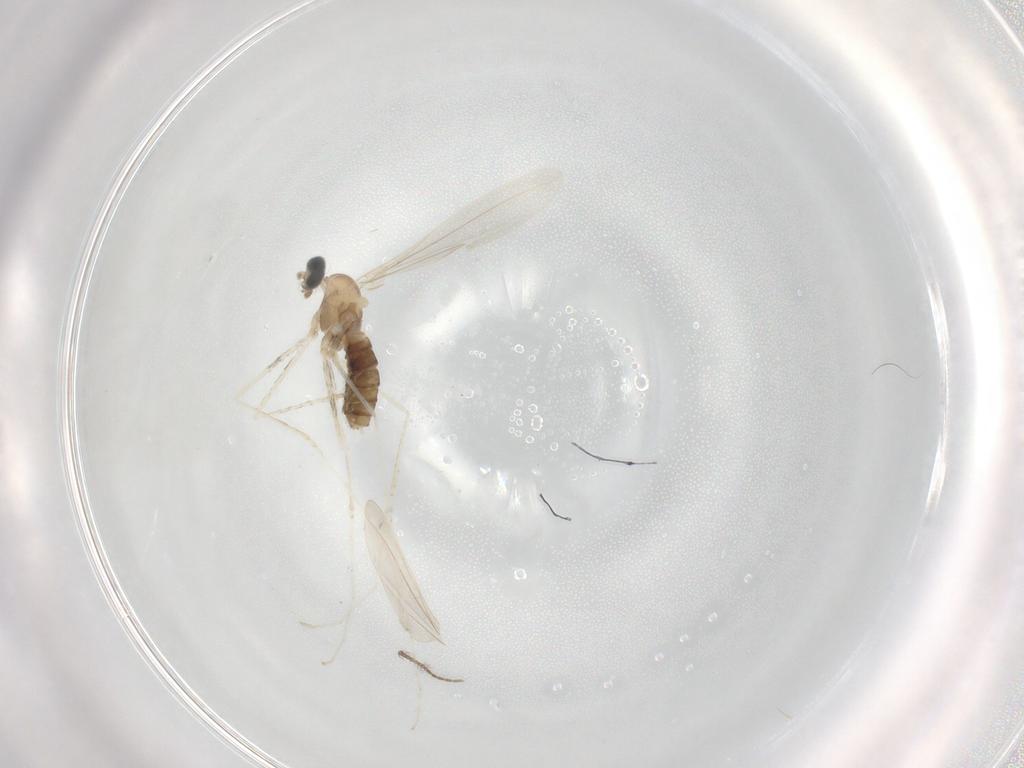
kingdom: Animalia
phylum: Arthropoda
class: Insecta
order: Diptera
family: Cecidomyiidae
